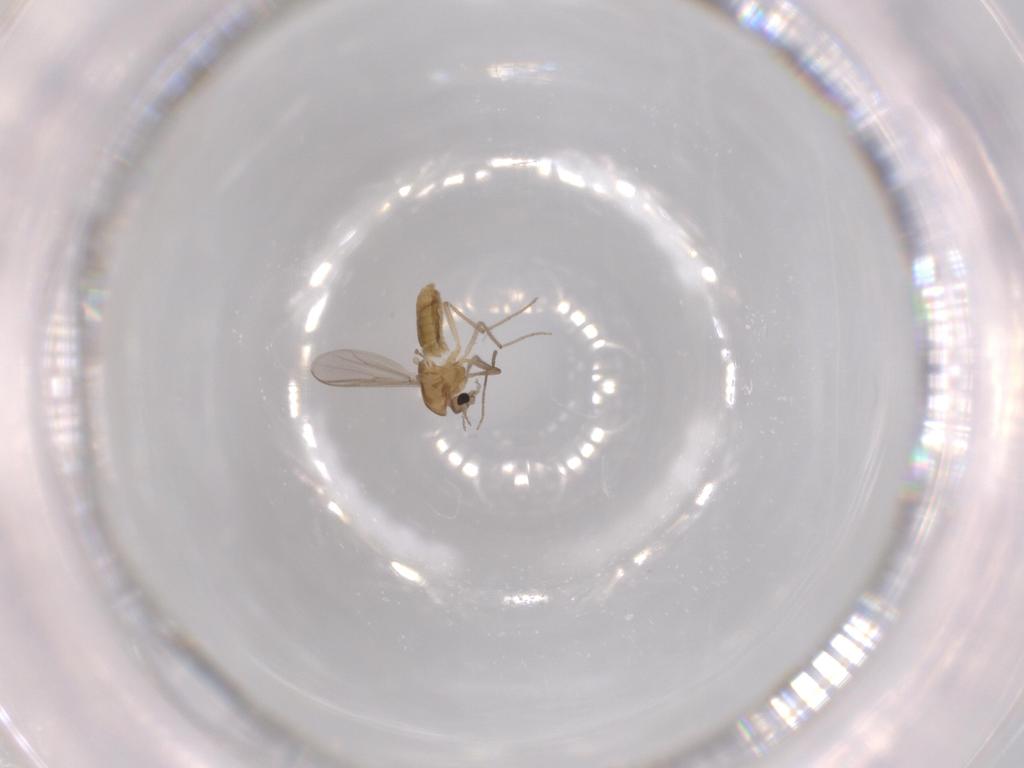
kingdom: Animalia
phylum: Arthropoda
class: Insecta
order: Diptera
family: Chironomidae
